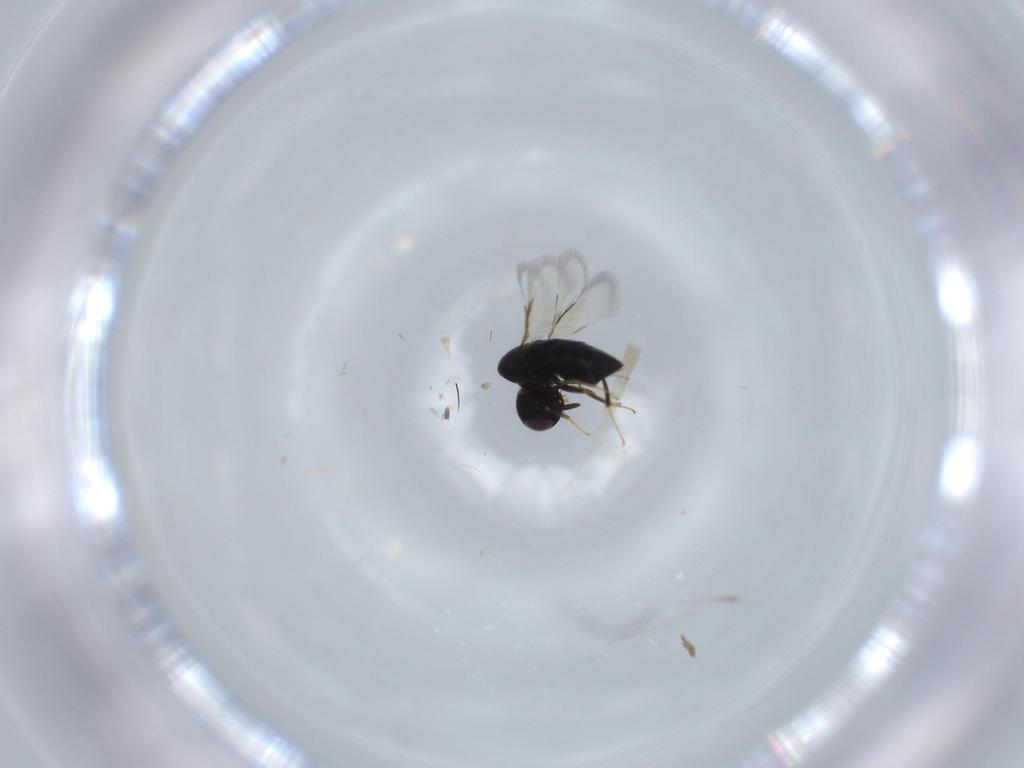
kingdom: Animalia
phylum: Arthropoda
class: Insecta
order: Hymenoptera
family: Signiphoridae
